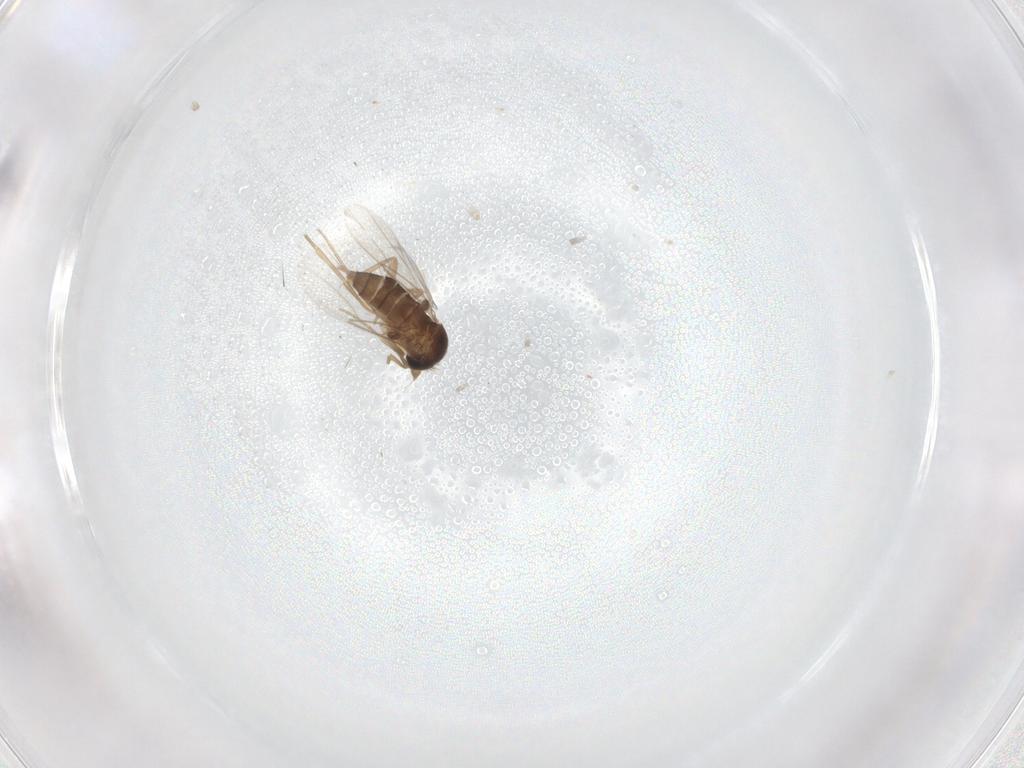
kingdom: Animalia
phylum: Arthropoda
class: Insecta
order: Diptera
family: Phoridae
